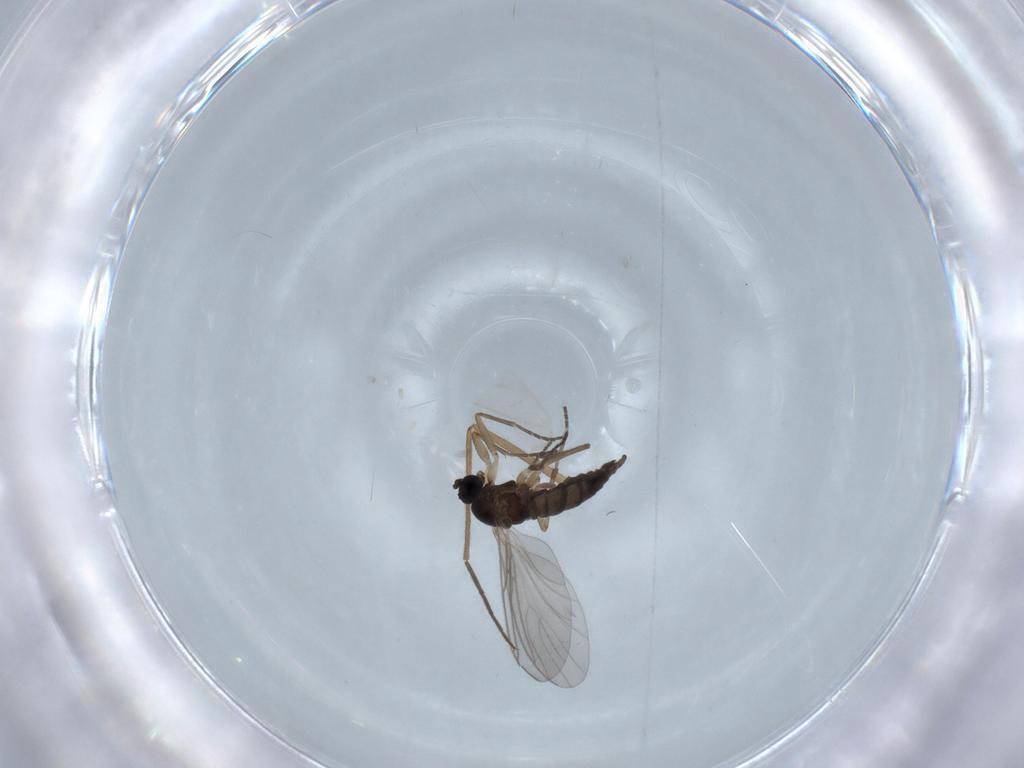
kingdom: Animalia
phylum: Arthropoda
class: Insecta
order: Diptera
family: Chironomidae
